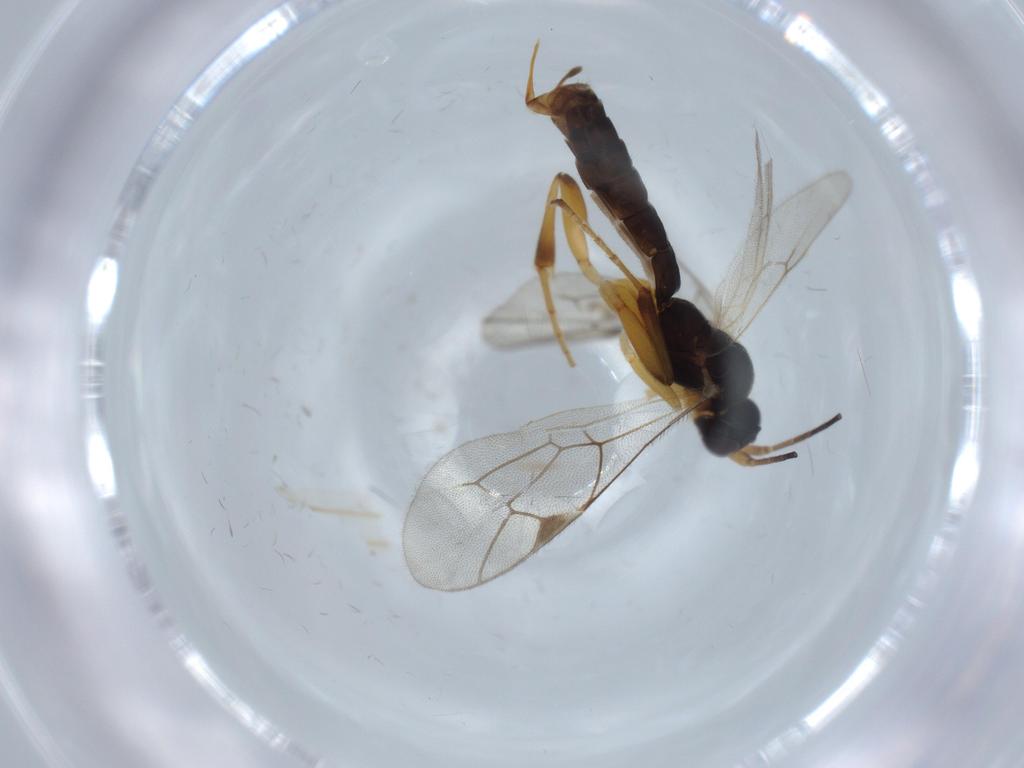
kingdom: Animalia
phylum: Arthropoda
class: Insecta
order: Hymenoptera
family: Ichneumonidae
